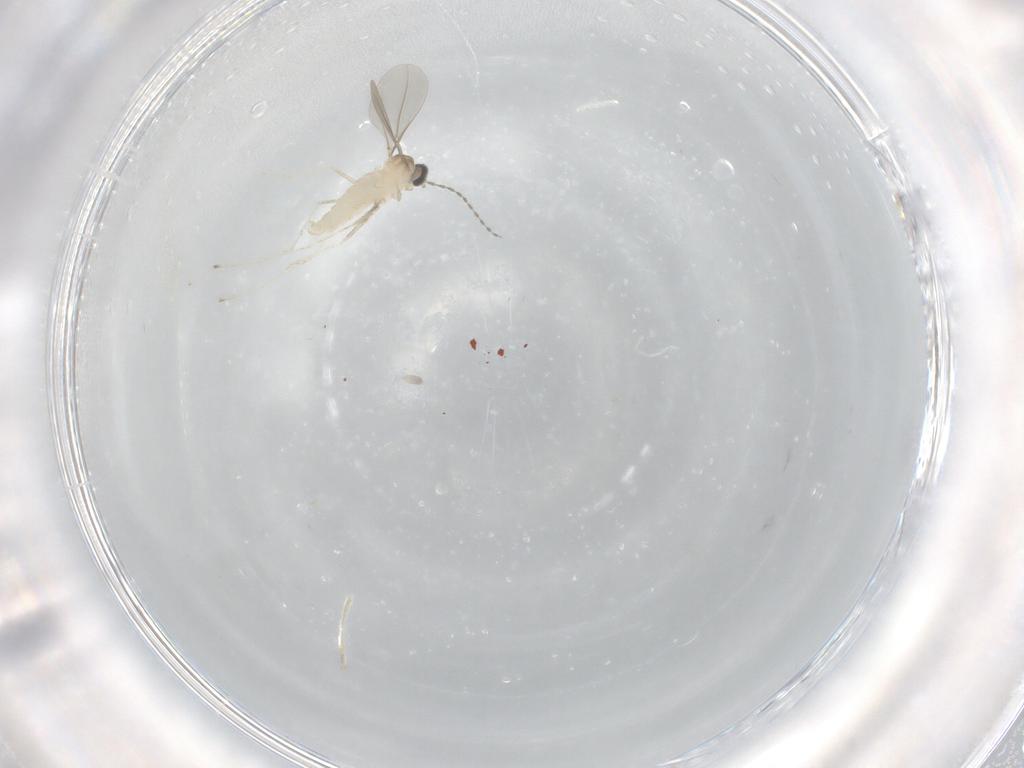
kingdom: Animalia
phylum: Arthropoda
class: Insecta
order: Diptera
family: Cecidomyiidae
